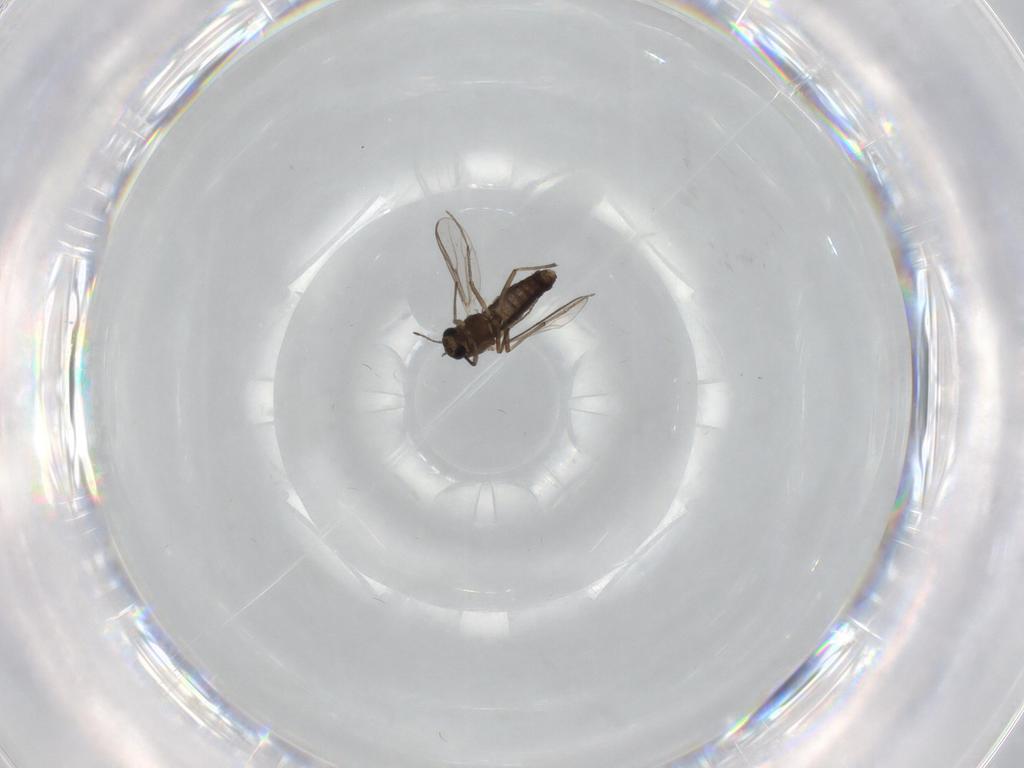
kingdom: Animalia
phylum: Arthropoda
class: Insecta
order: Diptera
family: Chironomidae
